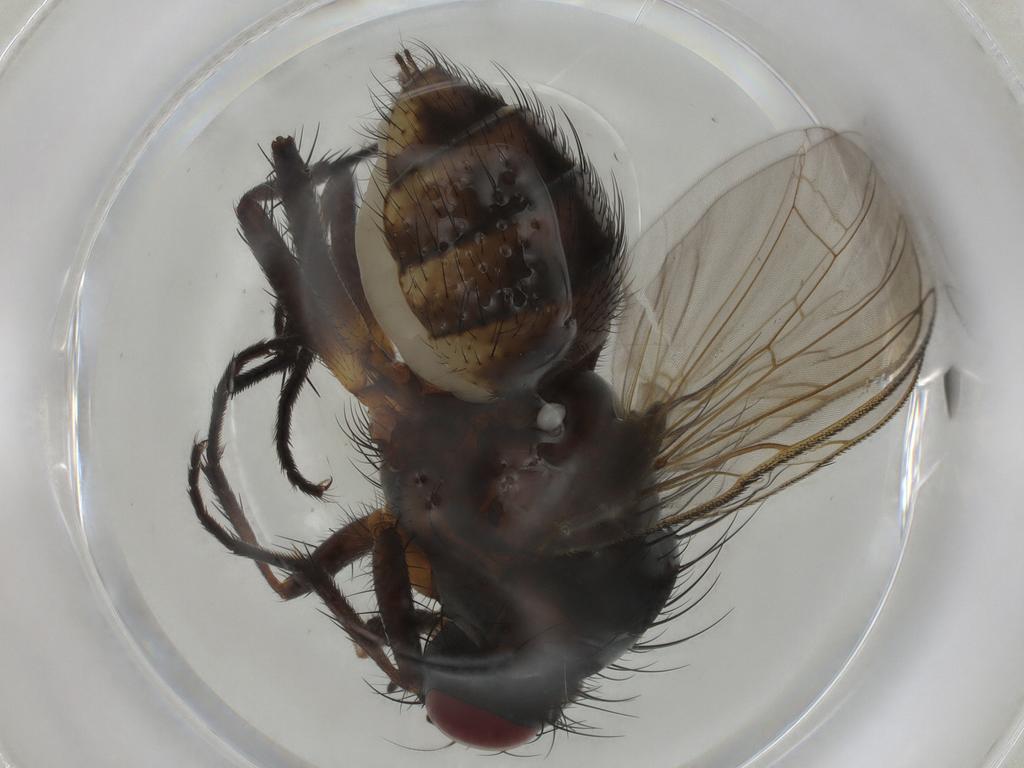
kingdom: Animalia
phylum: Arthropoda
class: Insecta
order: Diptera
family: Anthomyiidae
